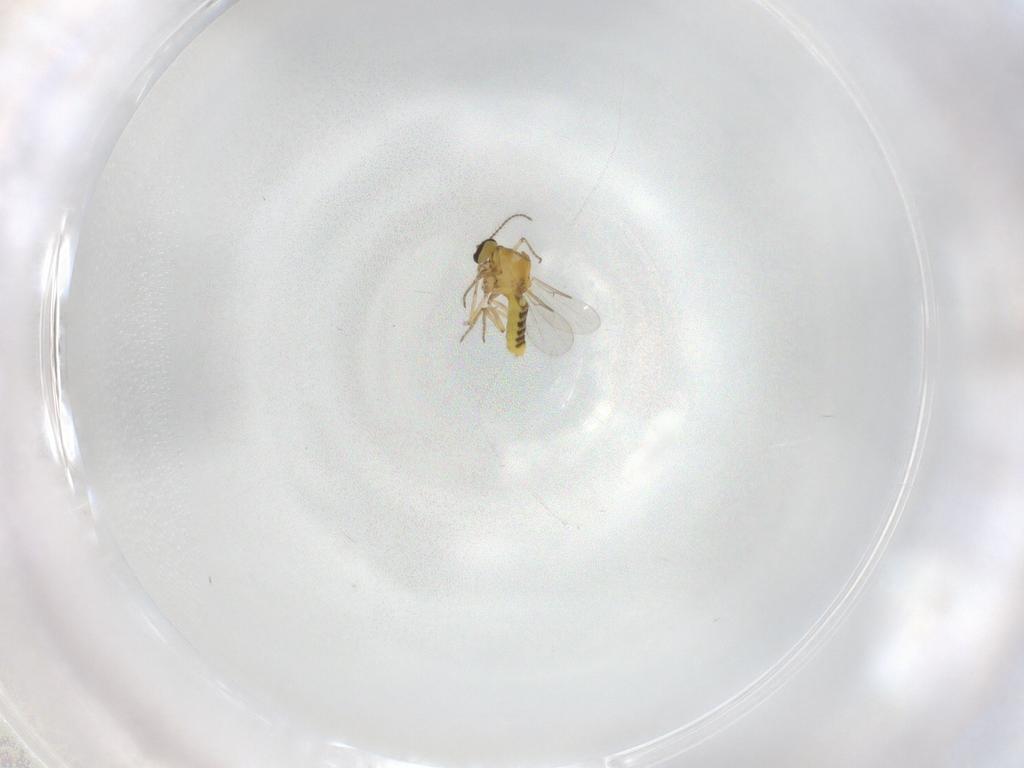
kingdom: Animalia
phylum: Arthropoda
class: Insecta
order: Diptera
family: Ceratopogonidae
